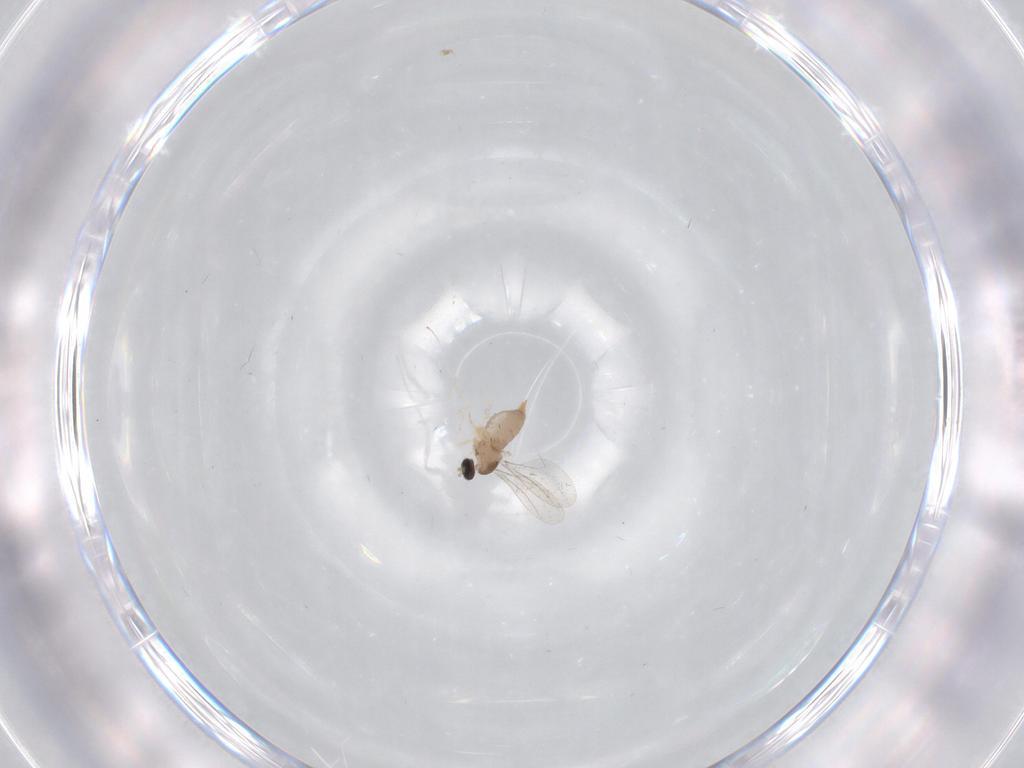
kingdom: Animalia
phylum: Arthropoda
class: Insecta
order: Diptera
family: Cecidomyiidae
